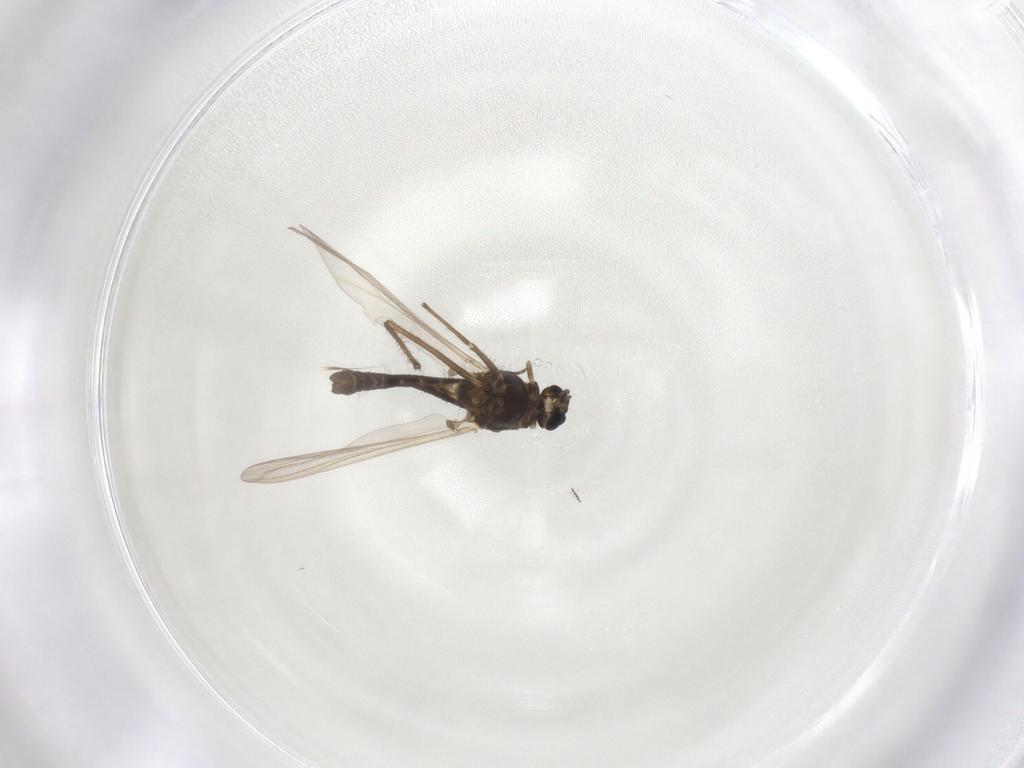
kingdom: Animalia
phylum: Arthropoda
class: Insecta
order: Diptera
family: Chironomidae
